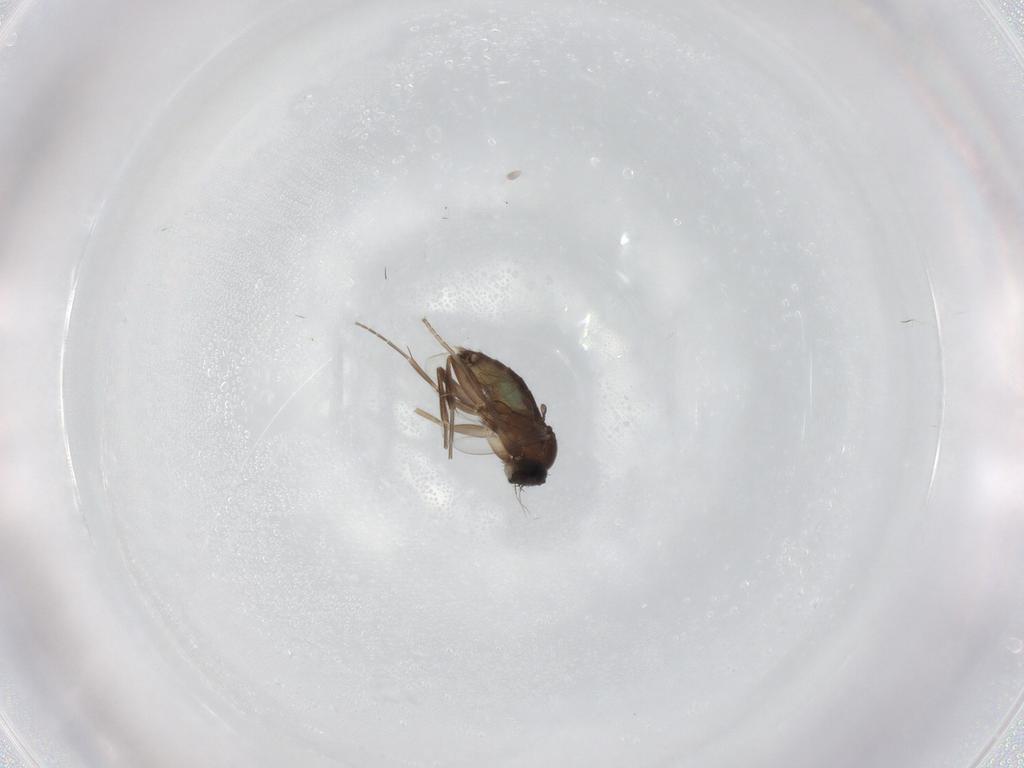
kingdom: Animalia
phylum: Arthropoda
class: Insecta
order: Diptera
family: Phoridae
